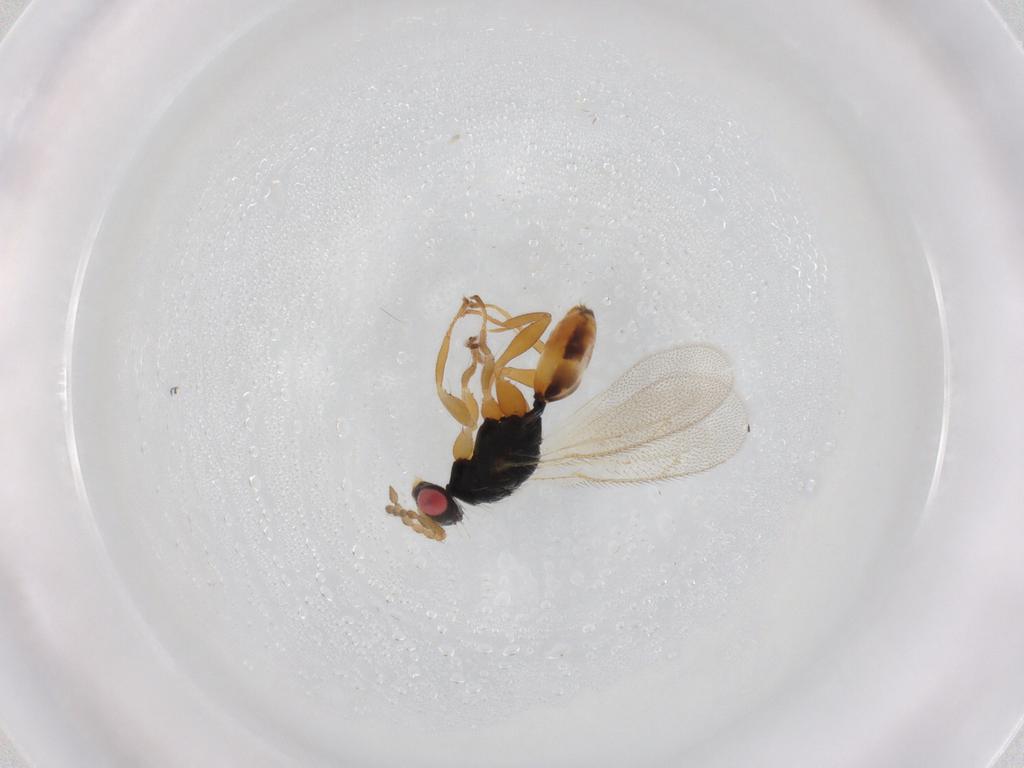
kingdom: Animalia
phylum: Arthropoda
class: Insecta
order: Hymenoptera
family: Eulophidae
